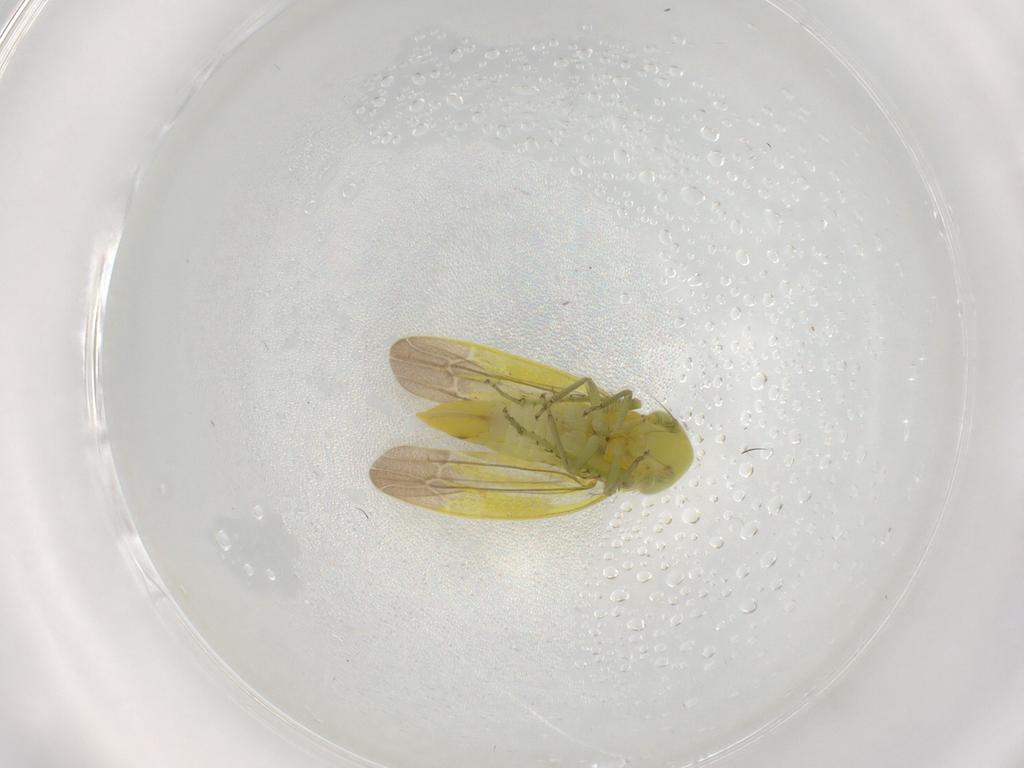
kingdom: Animalia
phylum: Arthropoda
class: Insecta
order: Hemiptera
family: Cicadellidae
